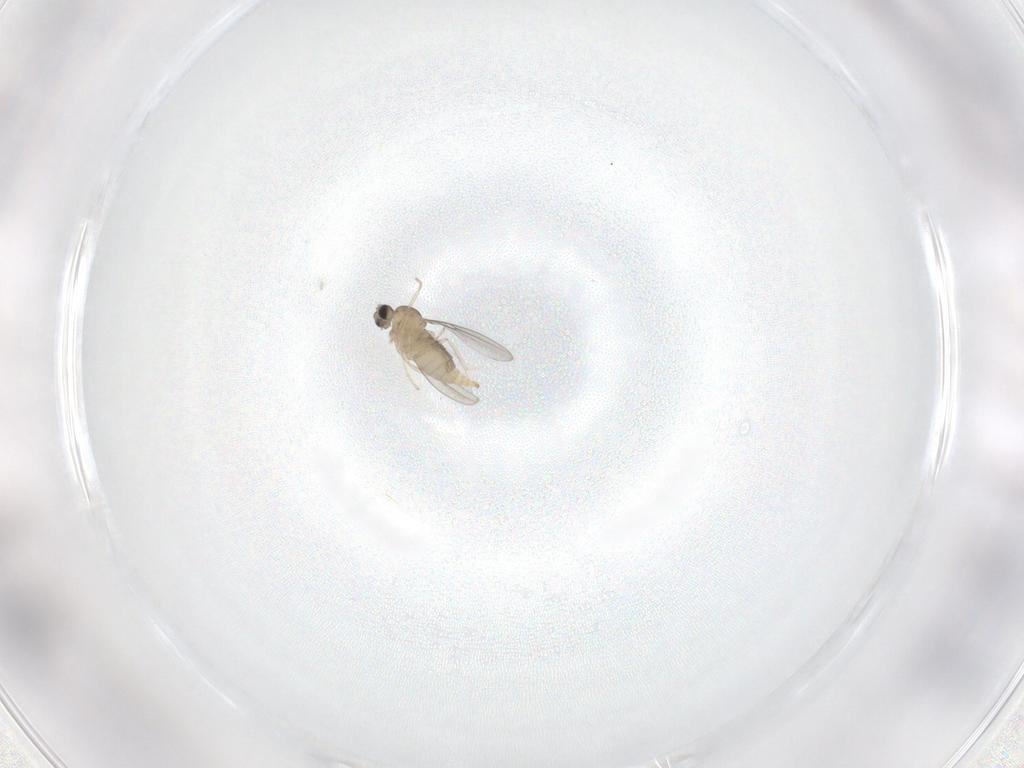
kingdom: Animalia
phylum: Arthropoda
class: Insecta
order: Diptera
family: Cecidomyiidae
